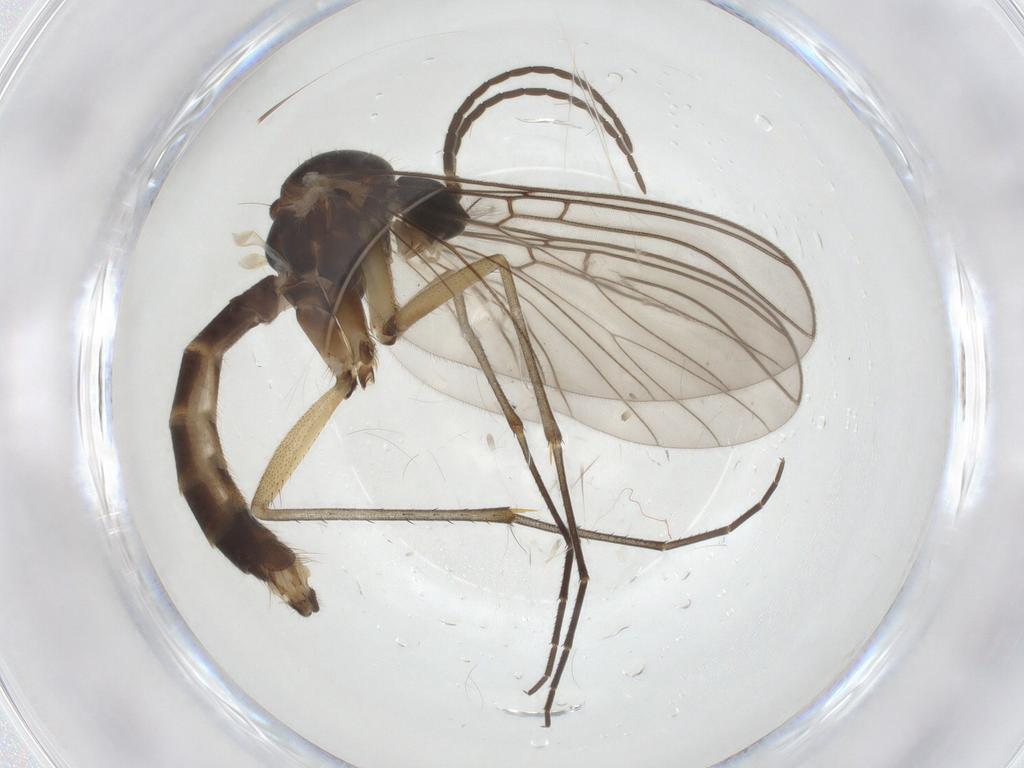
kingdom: Animalia
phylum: Arthropoda
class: Insecta
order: Diptera
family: Mycetophilidae
